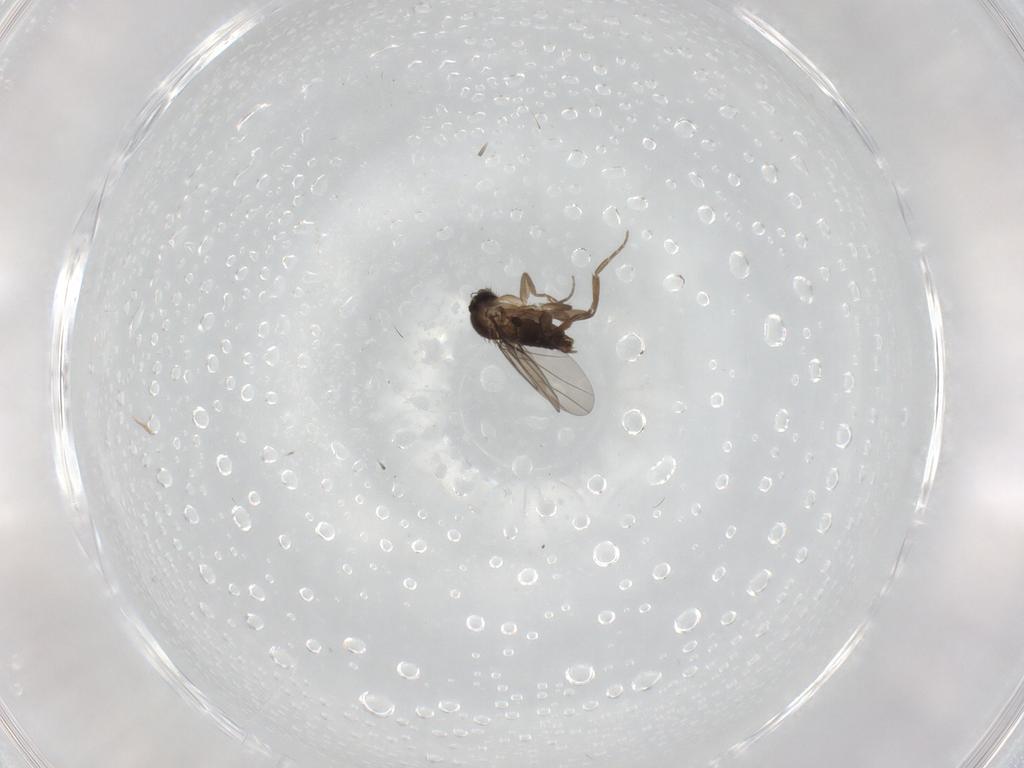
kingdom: Animalia
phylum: Arthropoda
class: Insecta
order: Diptera
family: Phoridae
